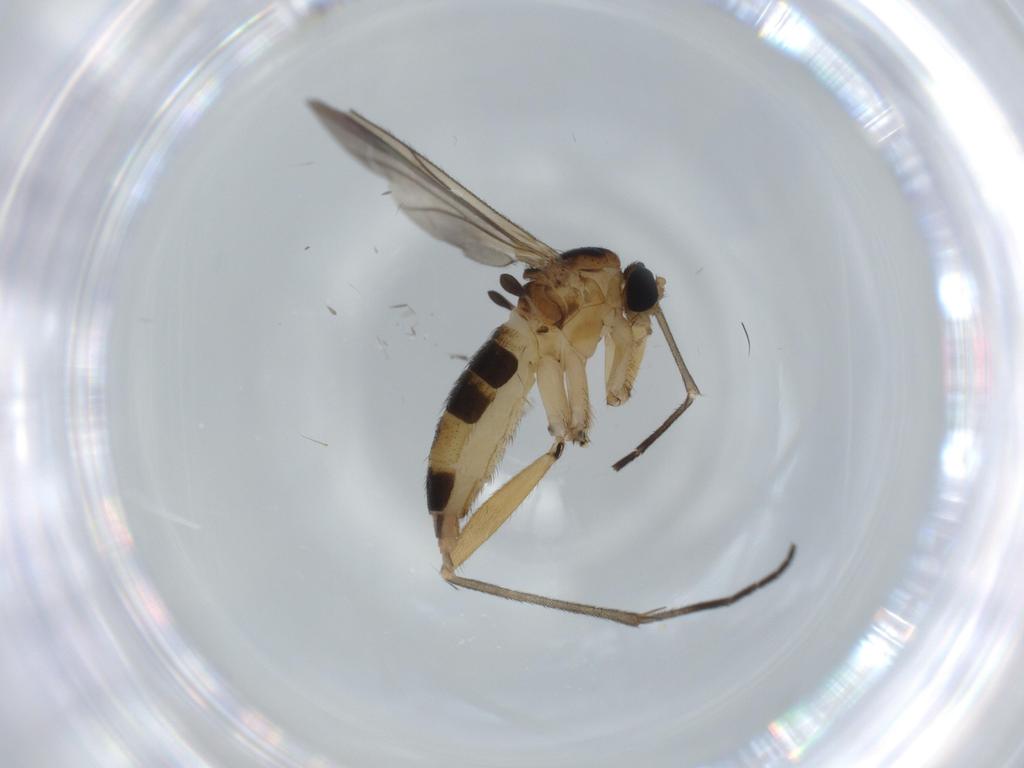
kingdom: Animalia
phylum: Arthropoda
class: Insecta
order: Diptera
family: Sciaridae
